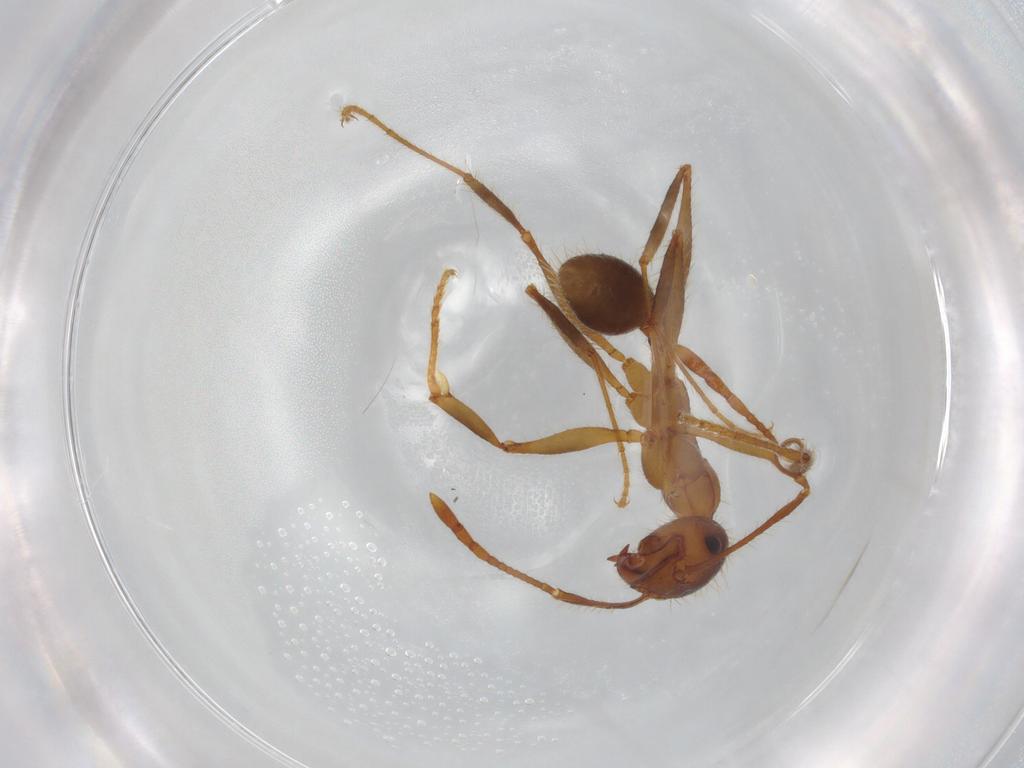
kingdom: Animalia
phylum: Arthropoda
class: Insecta
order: Hymenoptera
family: Formicidae
